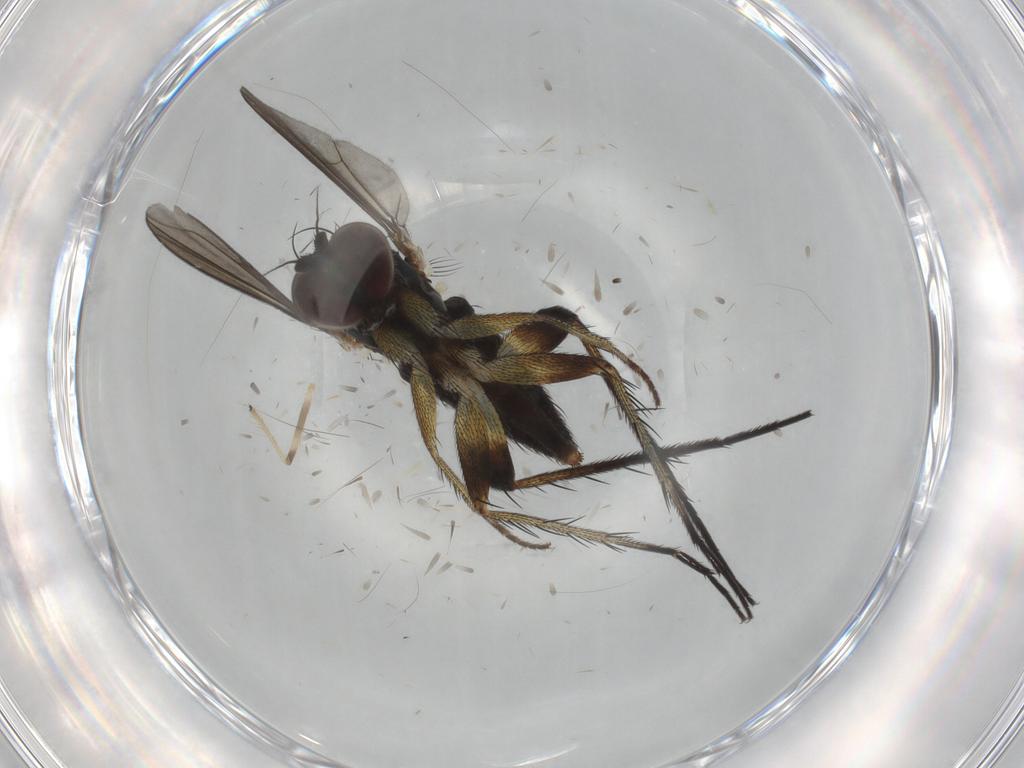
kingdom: Animalia
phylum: Arthropoda
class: Insecta
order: Diptera
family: Dolichopodidae
